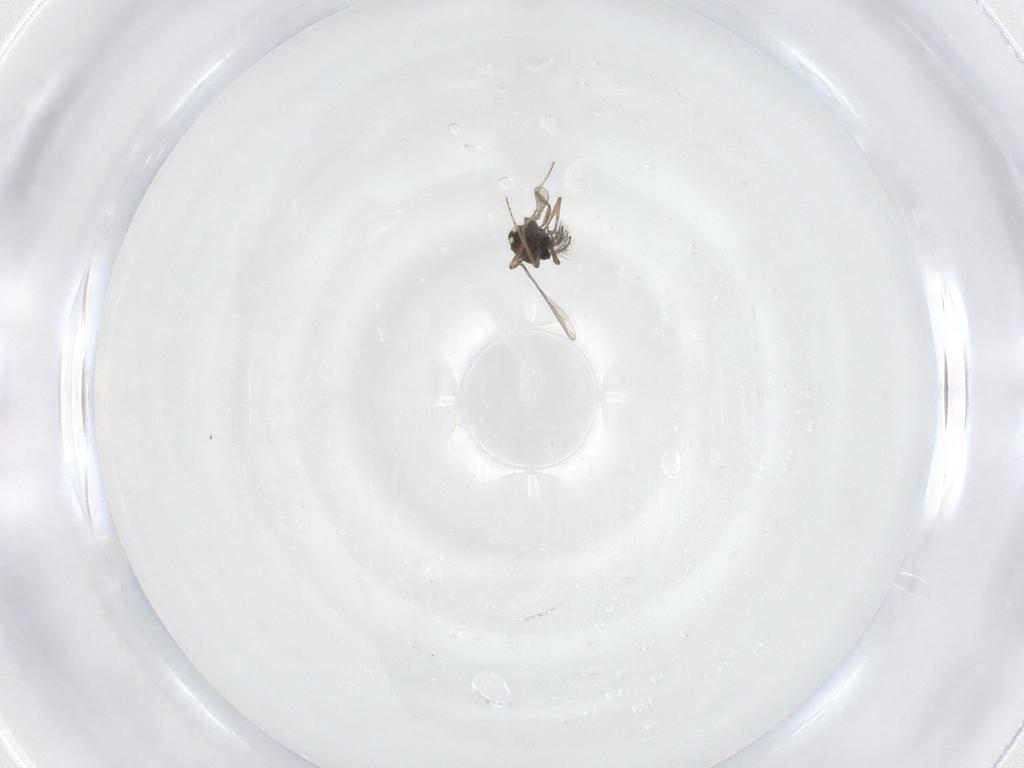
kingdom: Animalia
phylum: Arthropoda
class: Insecta
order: Diptera
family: Ceratopogonidae
